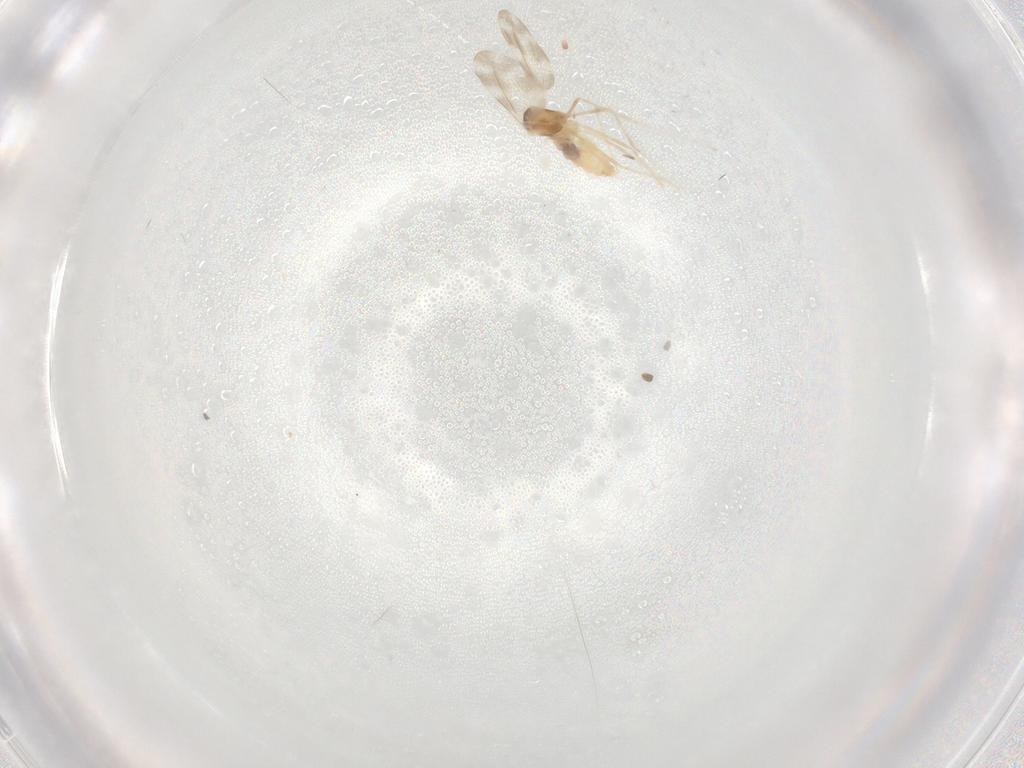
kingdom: Animalia
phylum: Arthropoda
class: Insecta
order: Diptera
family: Cecidomyiidae
